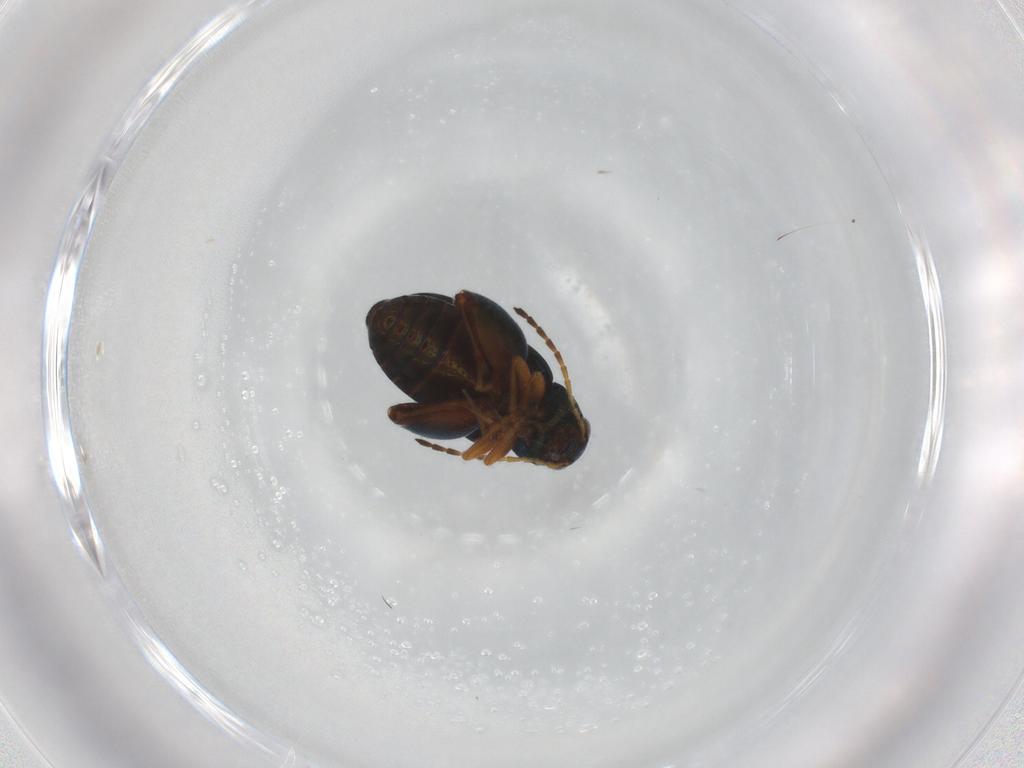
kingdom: Animalia
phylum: Arthropoda
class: Insecta
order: Coleoptera
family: Chrysomelidae
